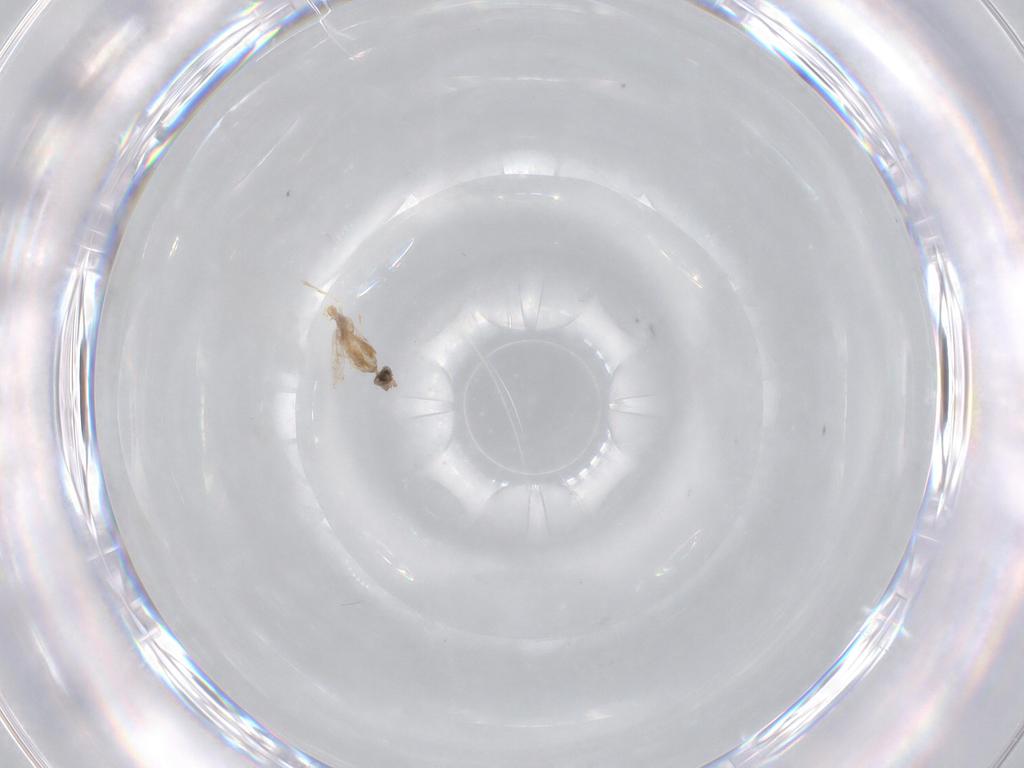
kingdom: Animalia
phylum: Arthropoda
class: Insecta
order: Diptera
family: Cecidomyiidae
